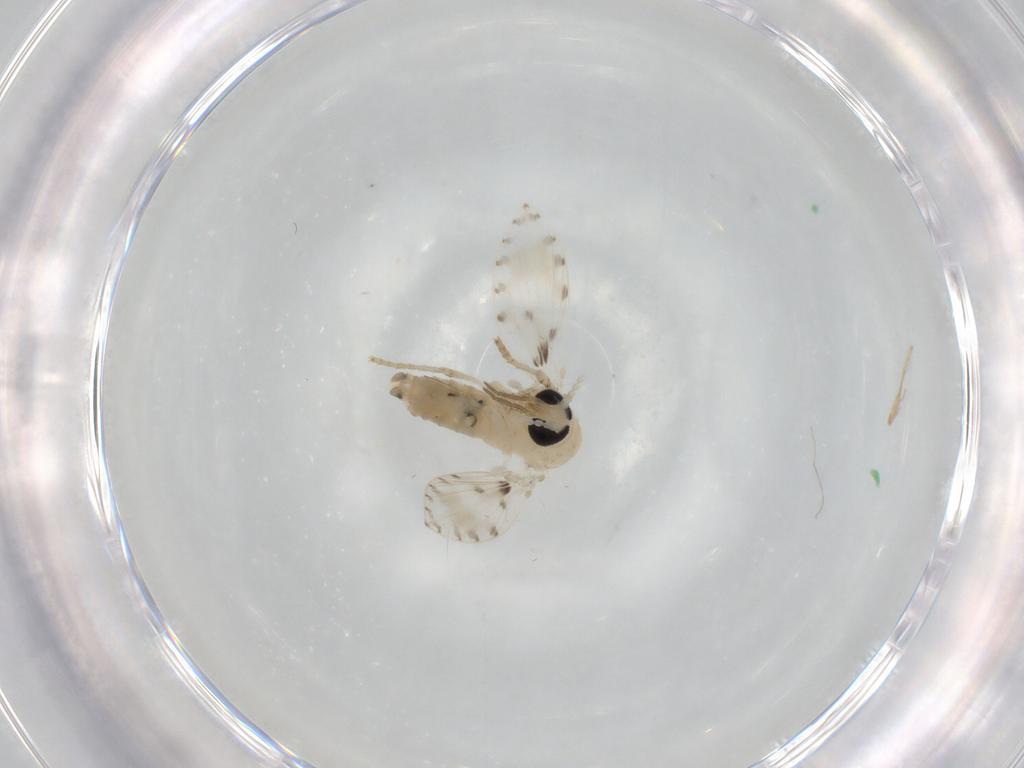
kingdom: Animalia
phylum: Arthropoda
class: Insecta
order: Diptera
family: Psychodidae
